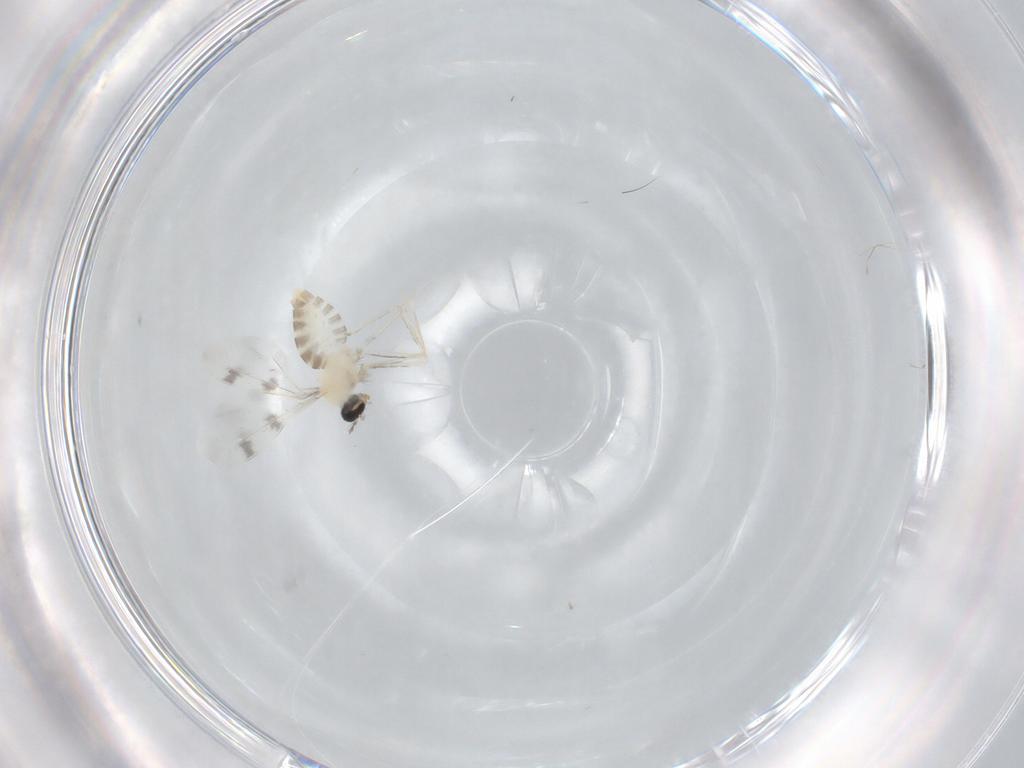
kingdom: Animalia
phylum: Arthropoda
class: Insecta
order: Diptera
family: Cecidomyiidae
